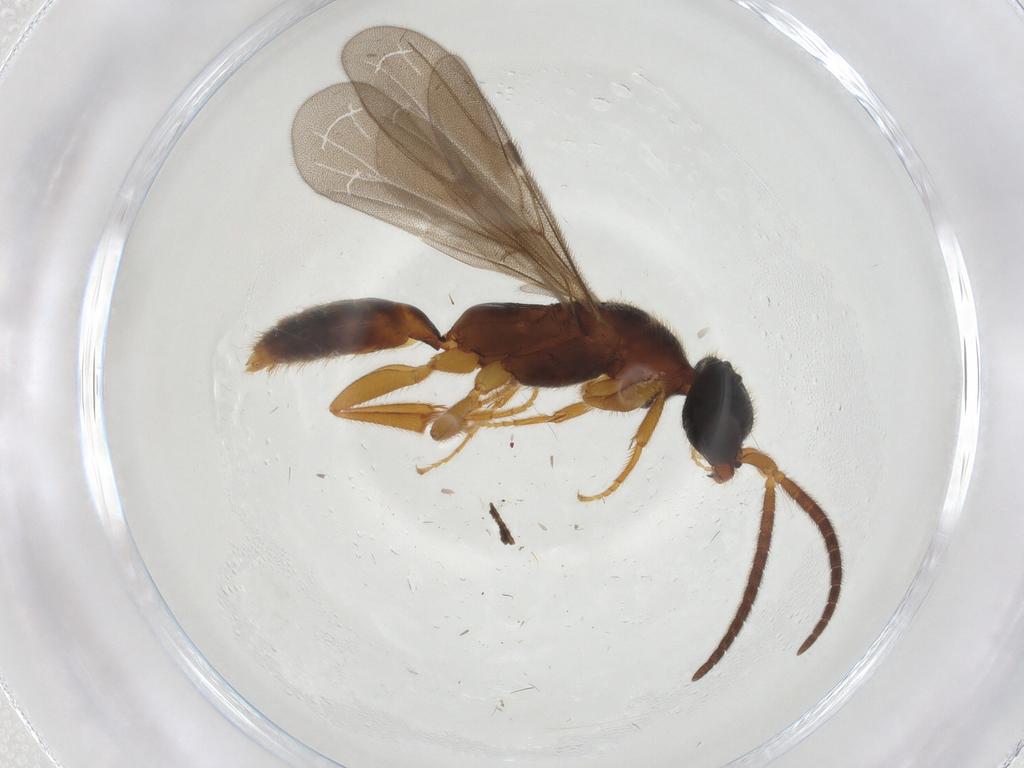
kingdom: Animalia
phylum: Arthropoda
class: Insecta
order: Hymenoptera
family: Bethylidae
